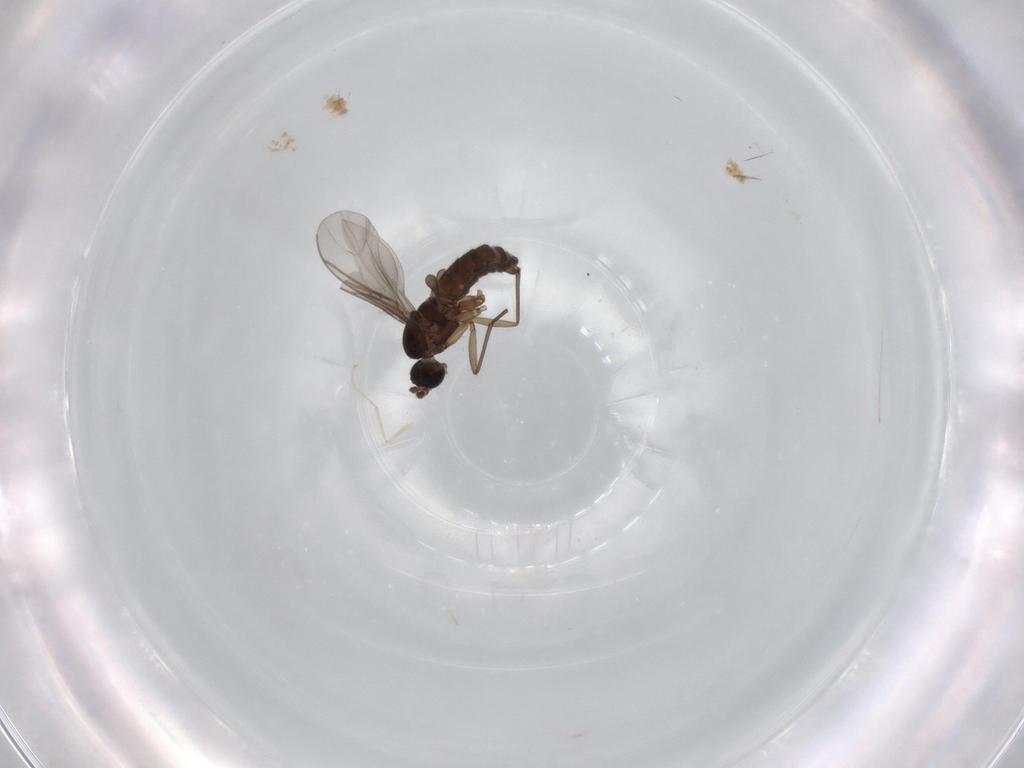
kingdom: Animalia
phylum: Arthropoda
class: Insecta
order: Diptera
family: Sciaridae
